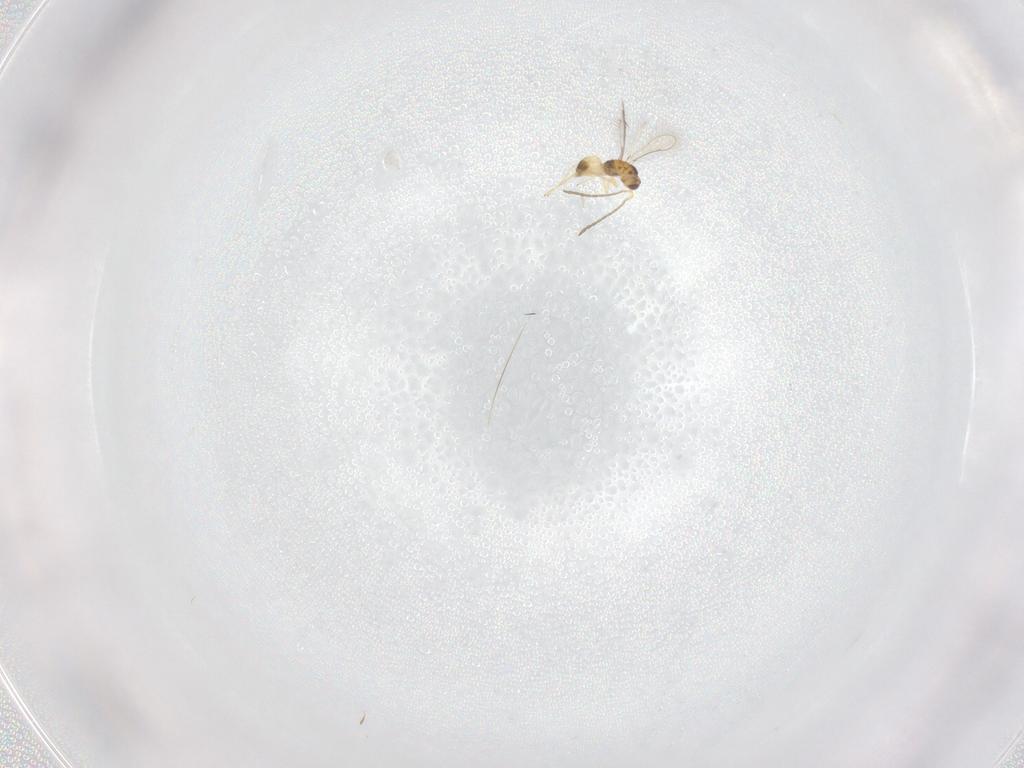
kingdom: Animalia
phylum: Arthropoda
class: Insecta
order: Hymenoptera
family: Mymaridae
